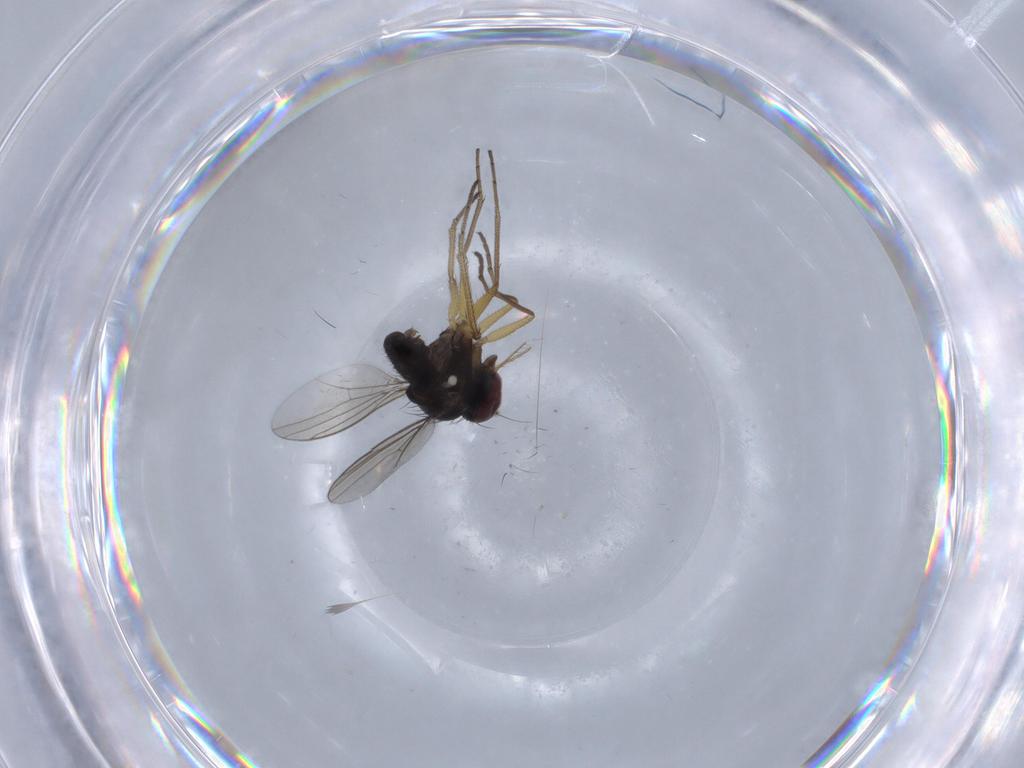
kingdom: Animalia
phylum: Arthropoda
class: Insecta
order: Diptera
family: Dolichopodidae
